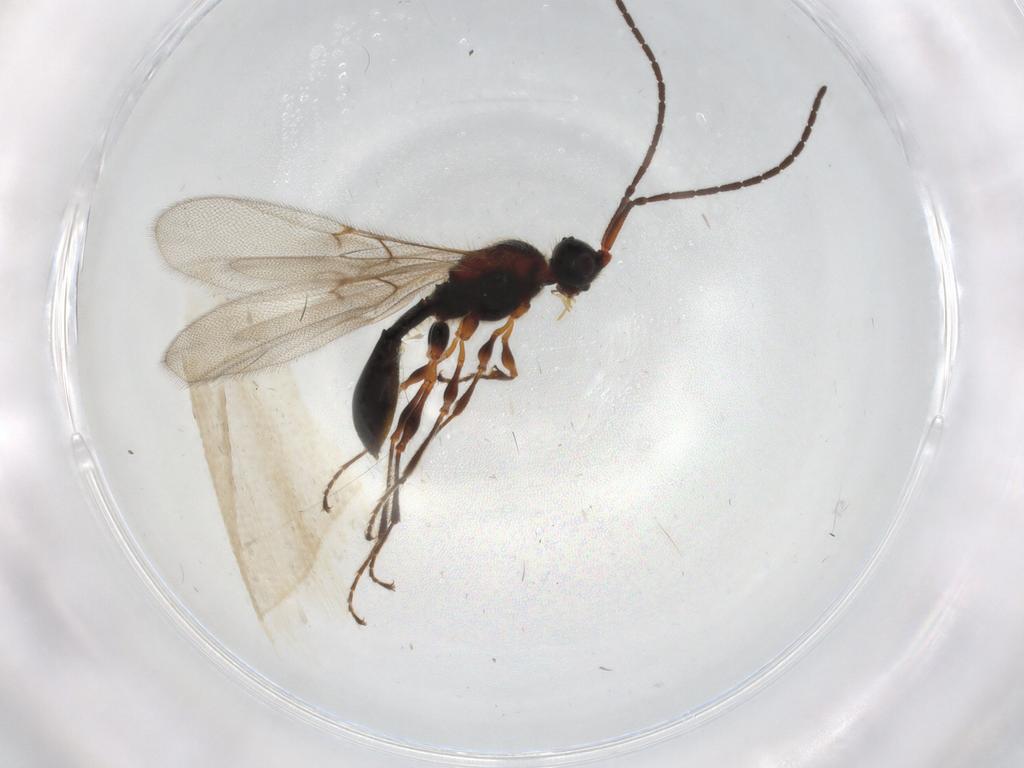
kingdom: Animalia
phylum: Arthropoda
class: Insecta
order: Hymenoptera
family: Diapriidae
